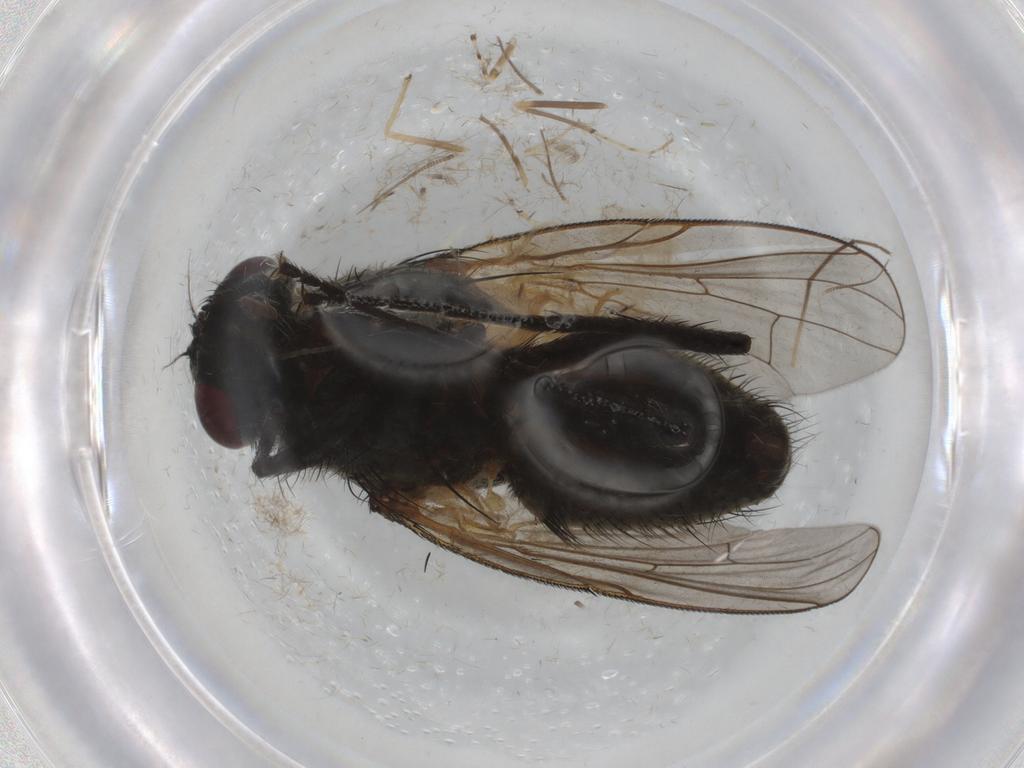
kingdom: Animalia
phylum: Arthropoda
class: Insecta
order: Diptera
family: Muscidae
